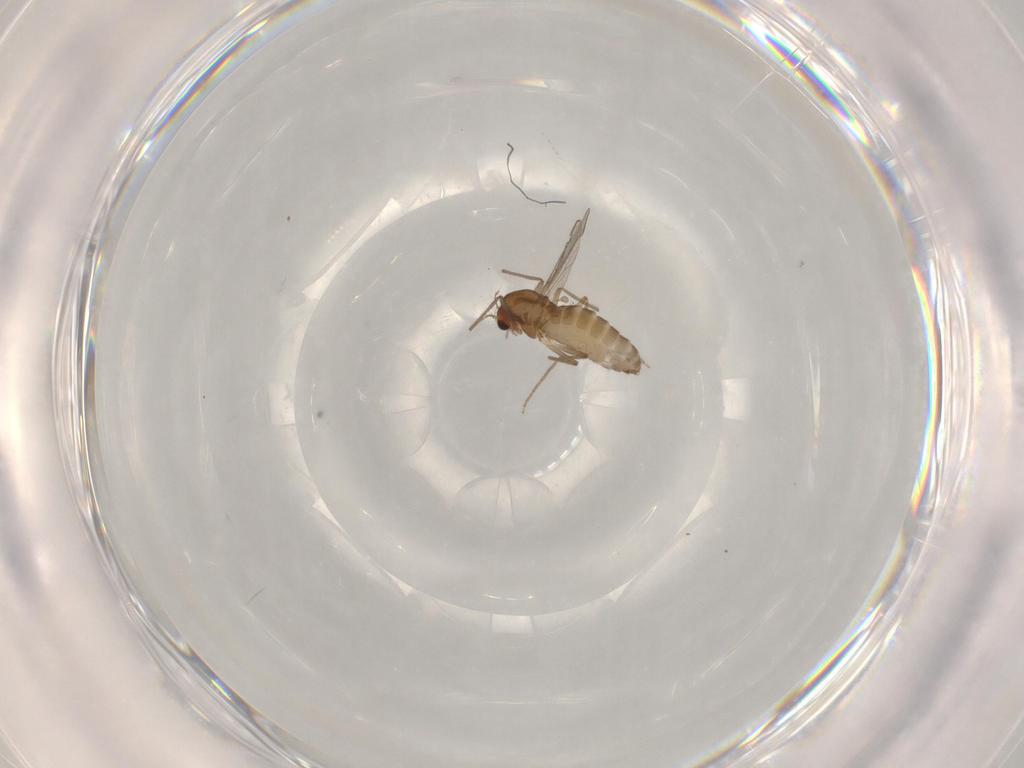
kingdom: Animalia
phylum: Arthropoda
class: Insecta
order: Diptera
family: Chironomidae
